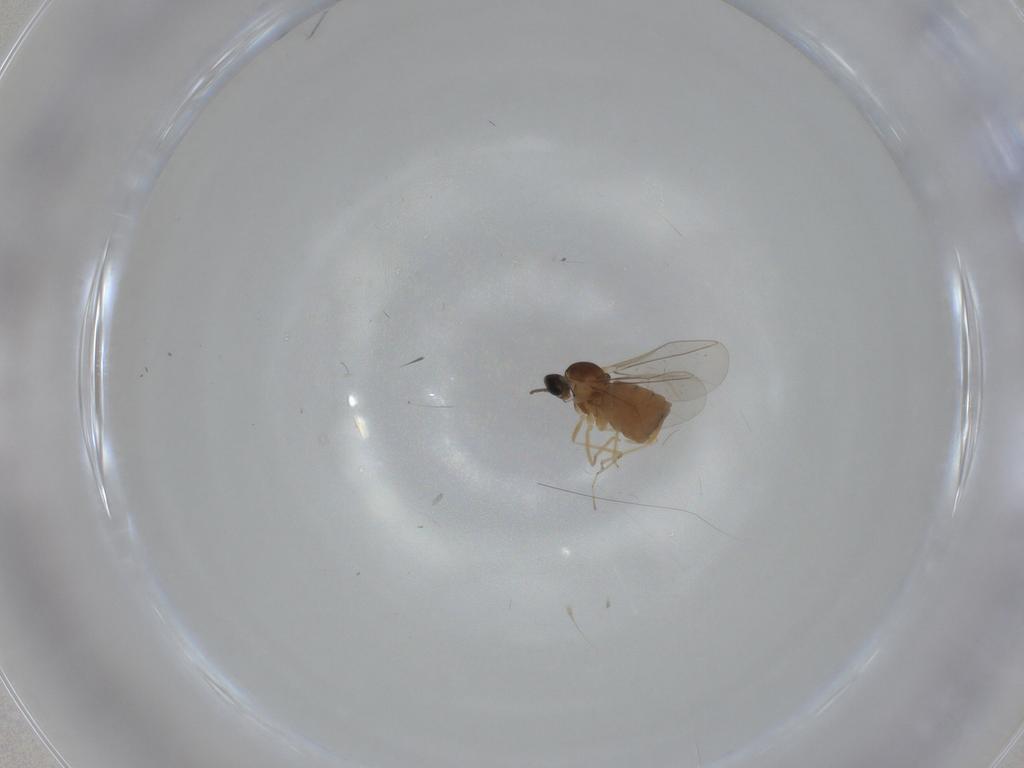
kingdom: Animalia
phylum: Arthropoda
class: Insecta
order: Diptera
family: Cecidomyiidae
